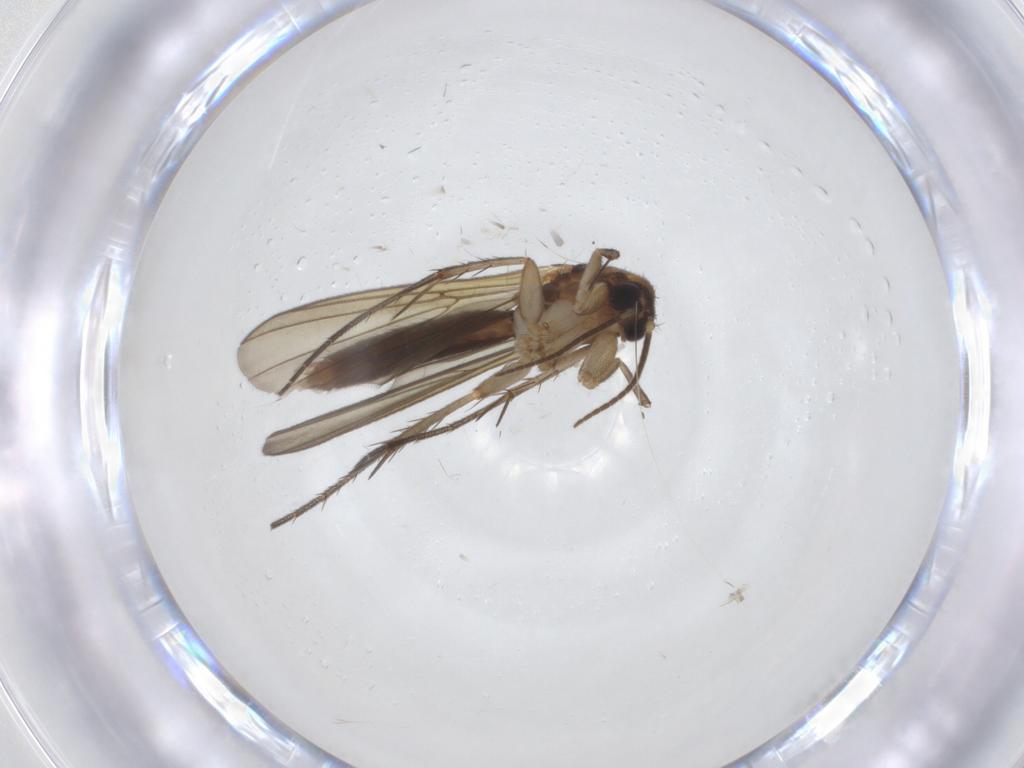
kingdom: Animalia
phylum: Arthropoda
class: Insecta
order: Diptera
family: Mycetophilidae
